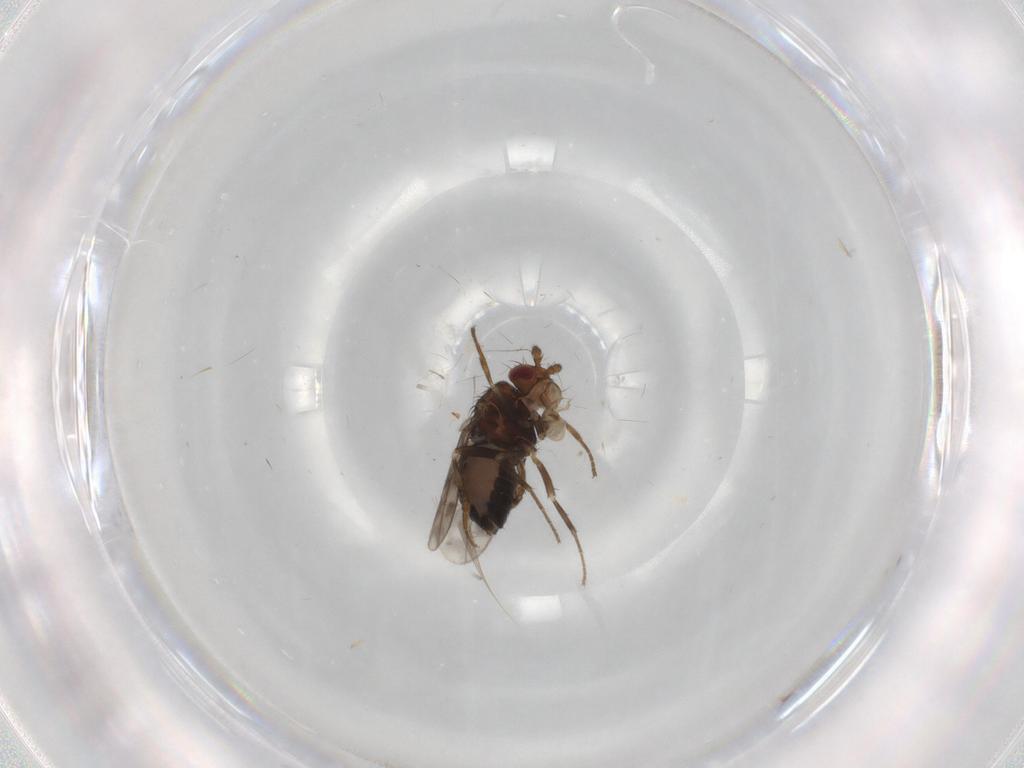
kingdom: Animalia
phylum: Arthropoda
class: Insecta
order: Diptera
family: Sphaeroceridae
